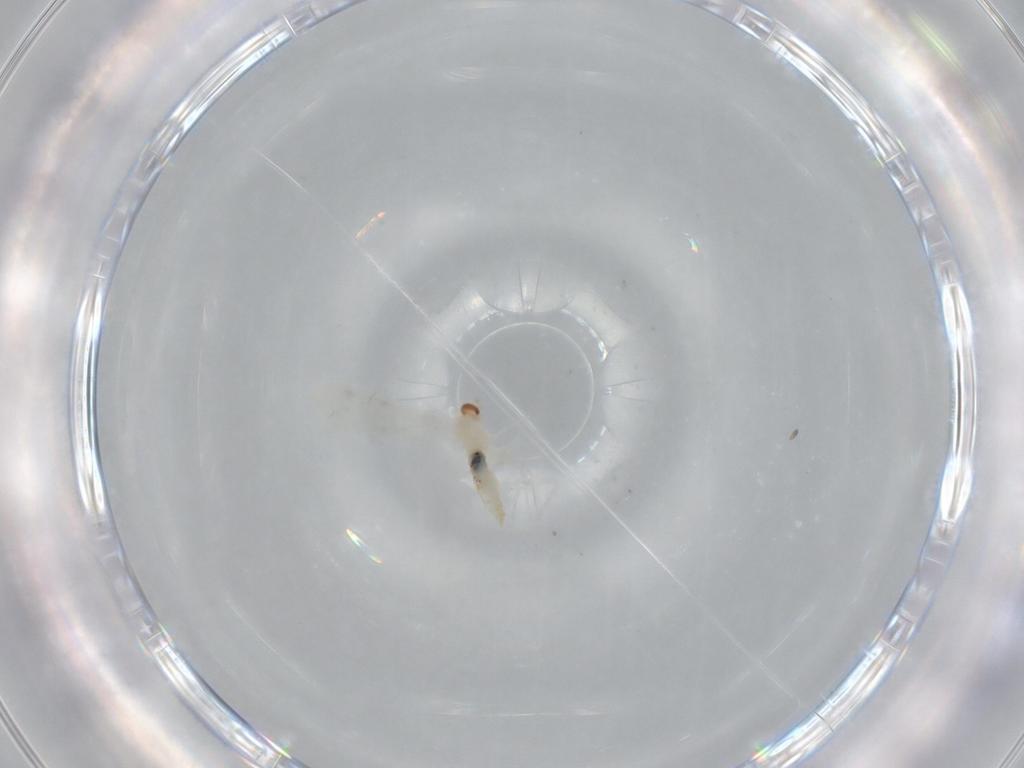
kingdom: Animalia
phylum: Arthropoda
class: Insecta
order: Diptera
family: Cecidomyiidae
